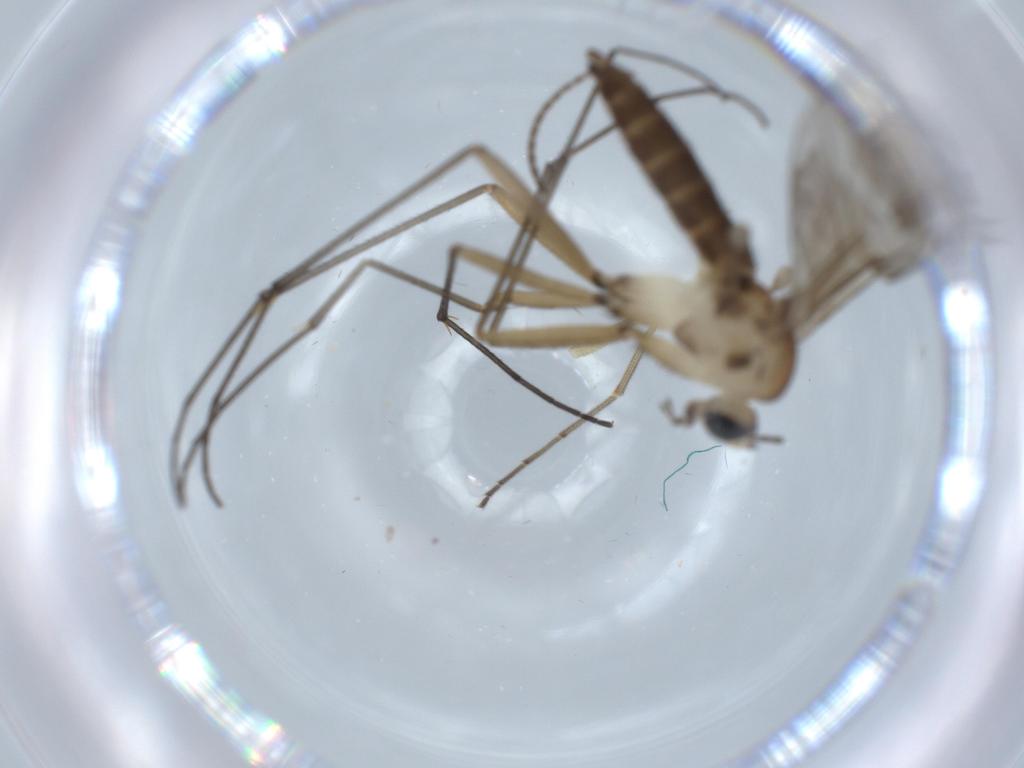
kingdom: Animalia
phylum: Arthropoda
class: Insecta
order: Diptera
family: Sciaridae
